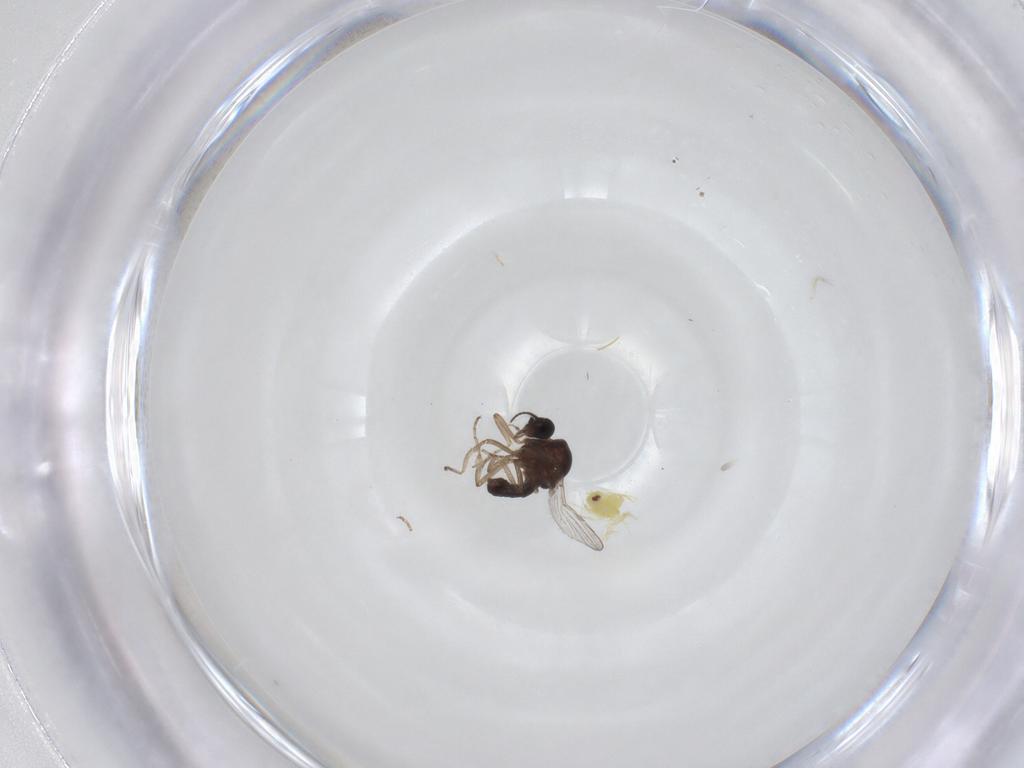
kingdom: Animalia
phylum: Arthropoda
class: Insecta
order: Diptera
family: Ceratopogonidae
